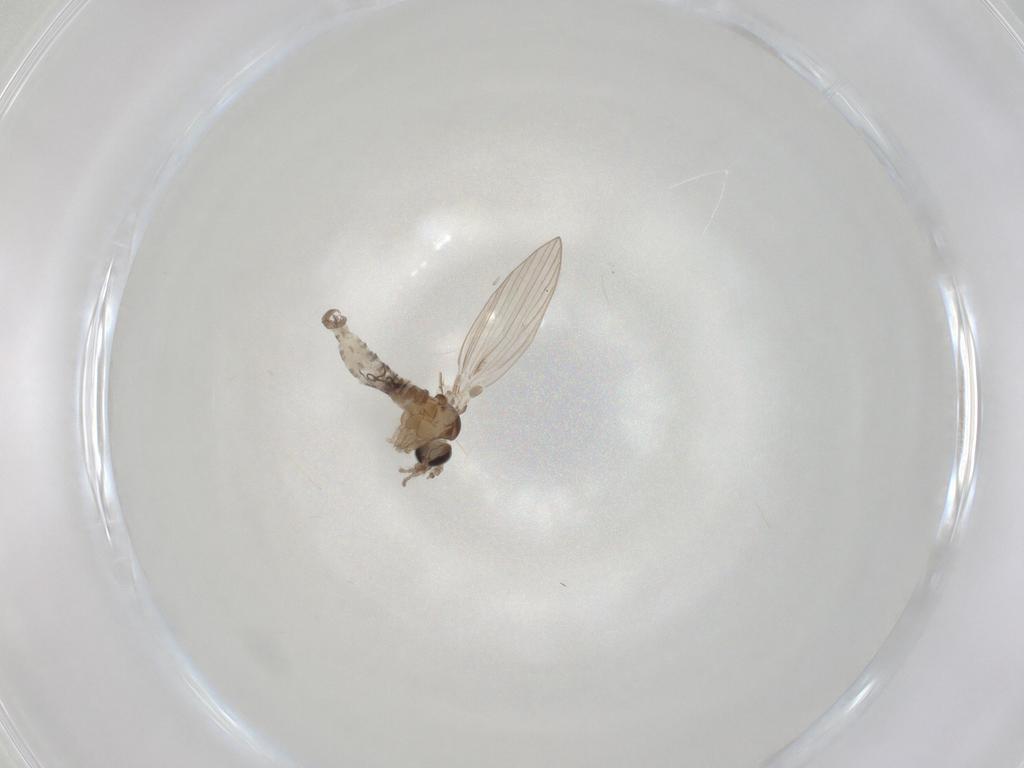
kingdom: Animalia
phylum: Arthropoda
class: Insecta
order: Diptera
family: Psychodidae
